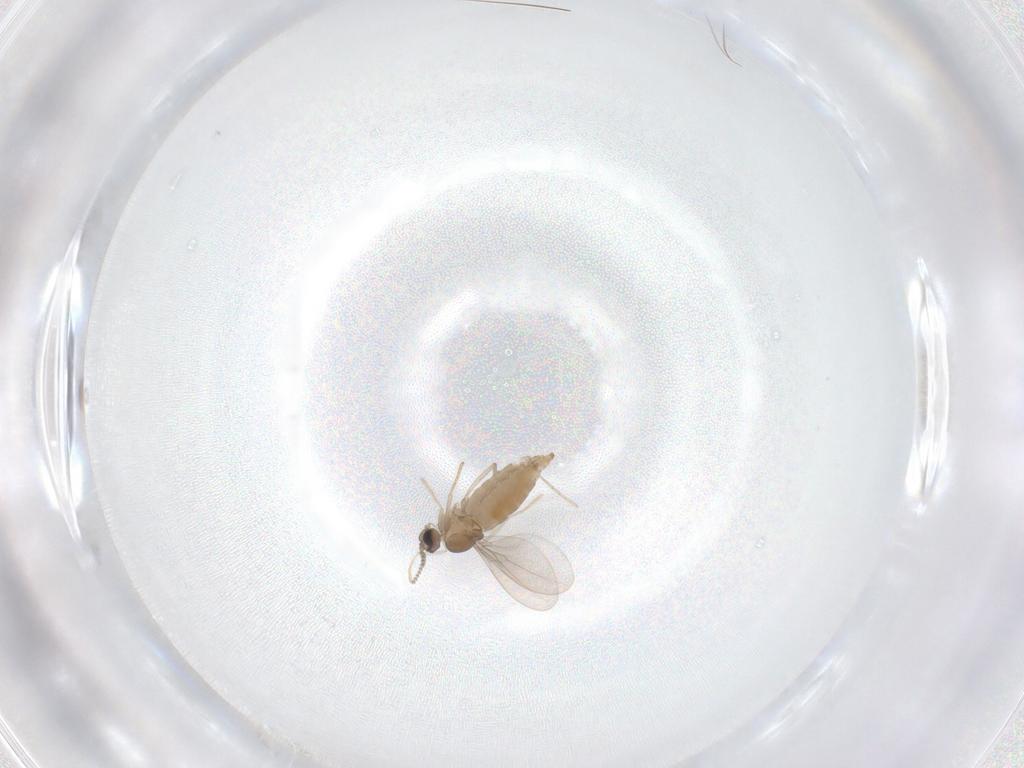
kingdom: Animalia
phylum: Arthropoda
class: Insecta
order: Diptera
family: Cecidomyiidae
